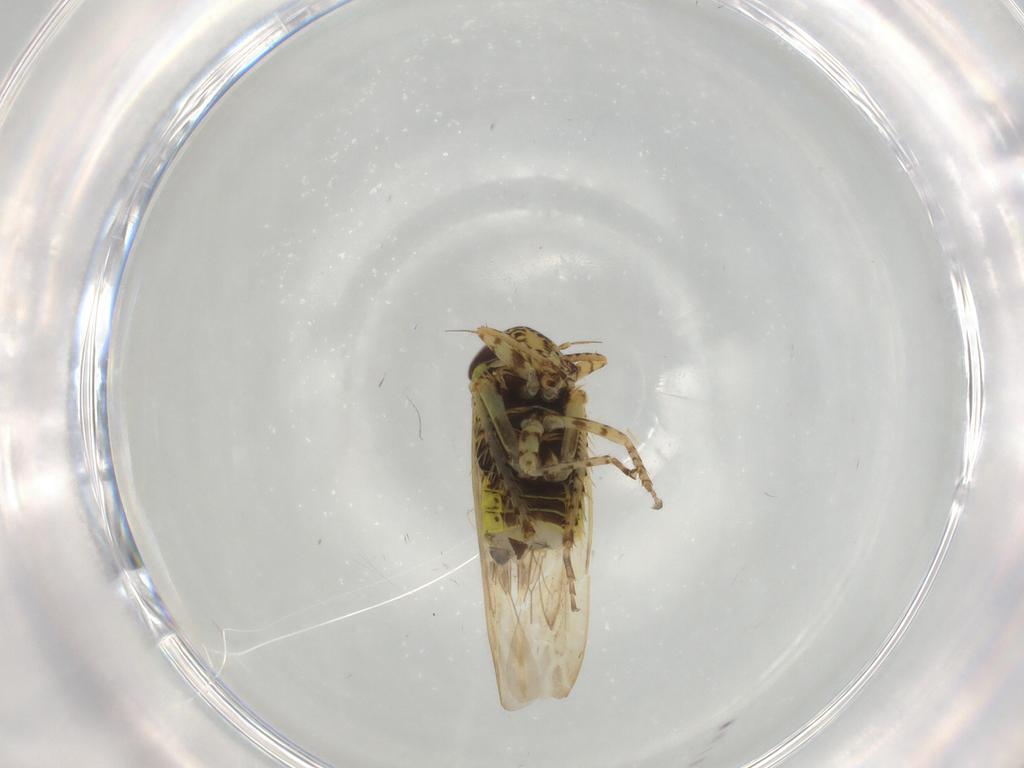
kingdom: Animalia
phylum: Arthropoda
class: Insecta
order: Hemiptera
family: Cicadellidae
